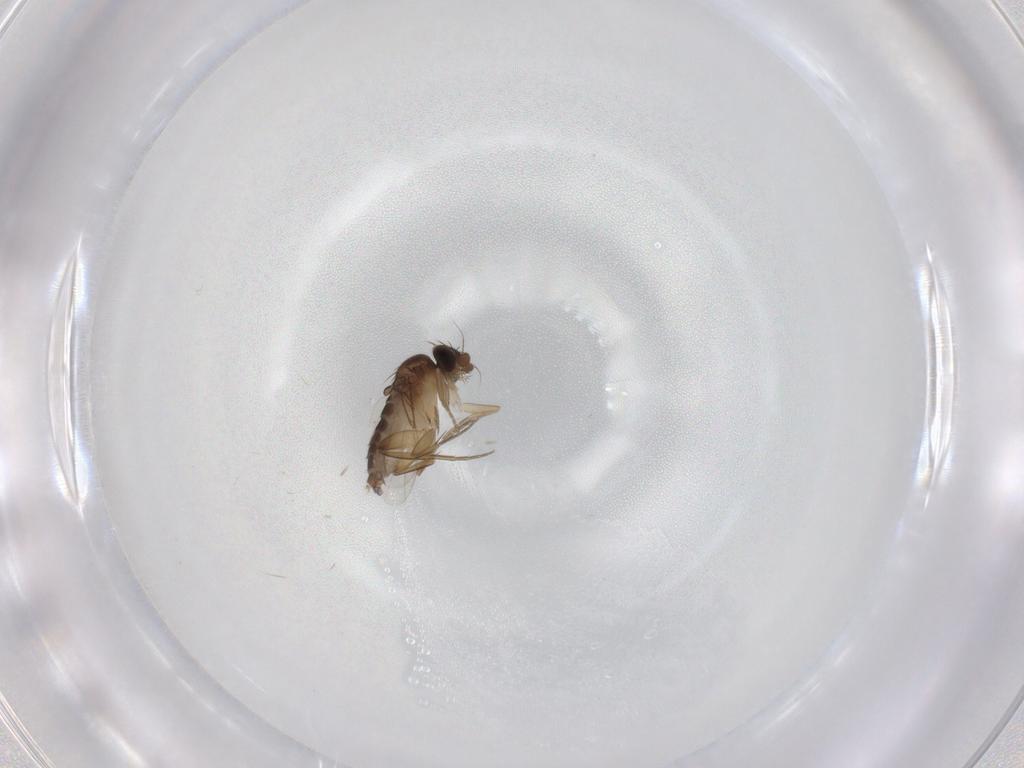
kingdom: Animalia
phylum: Arthropoda
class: Insecta
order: Diptera
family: Phoridae
